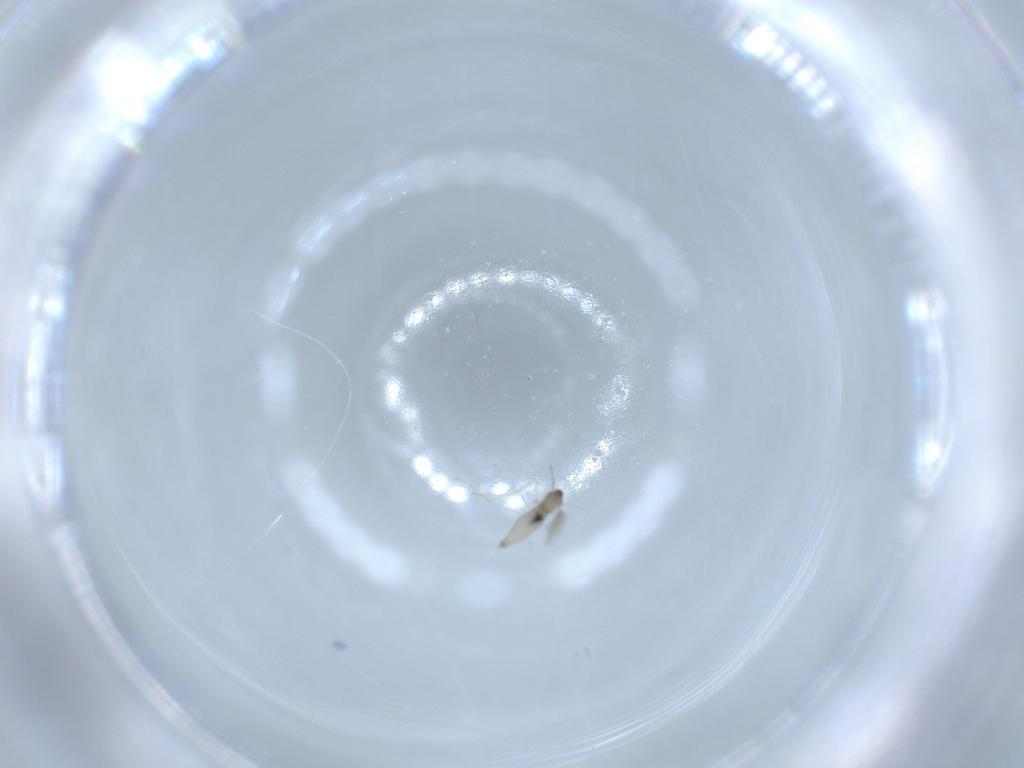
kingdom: Animalia
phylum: Arthropoda
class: Insecta
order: Diptera
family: Cecidomyiidae
